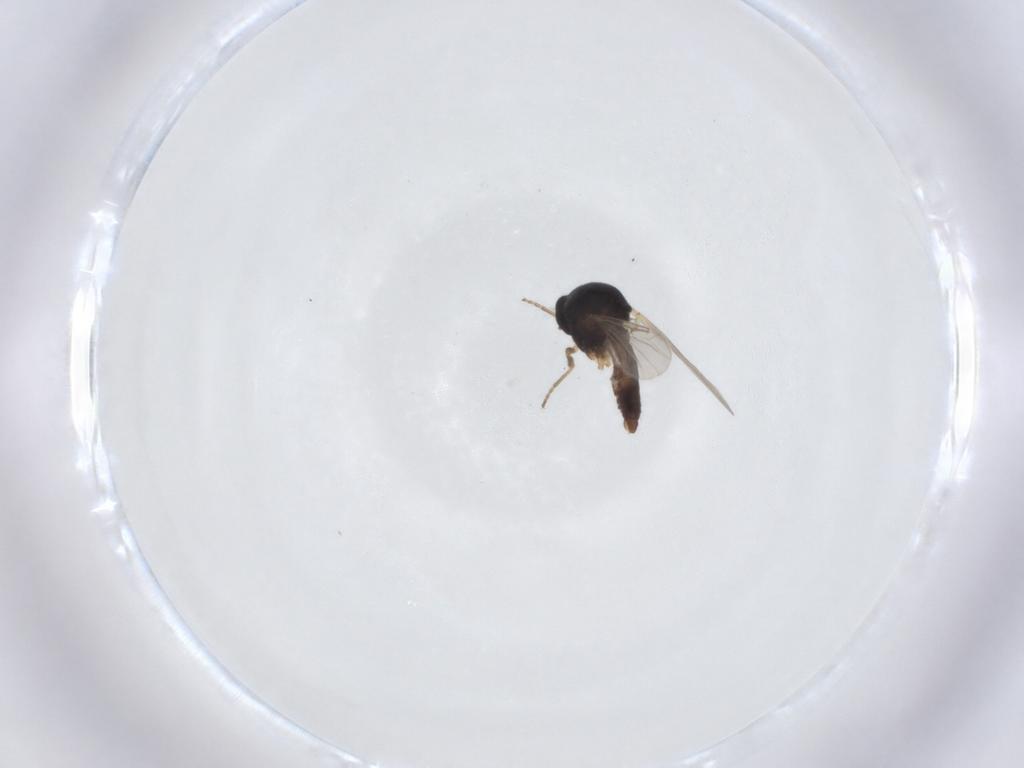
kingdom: Animalia
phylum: Arthropoda
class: Insecta
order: Diptera
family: Ceratopogonidae
